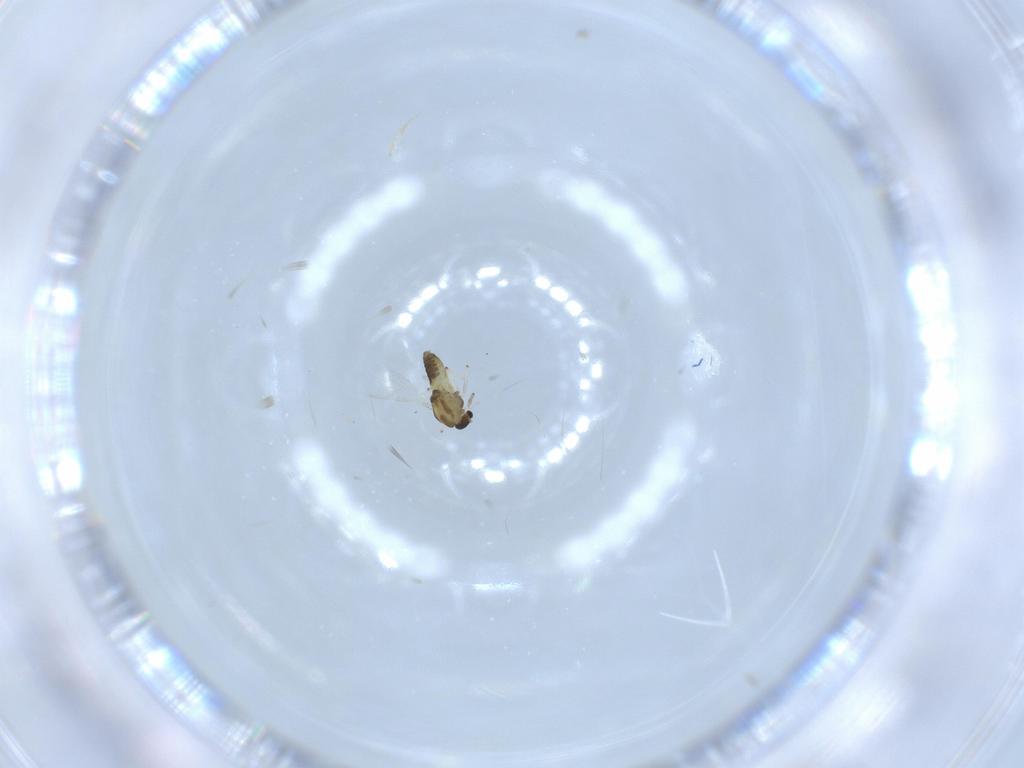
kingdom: Animalia
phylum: Arthropoda
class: Insecta
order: Diptera
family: Chironomidae
